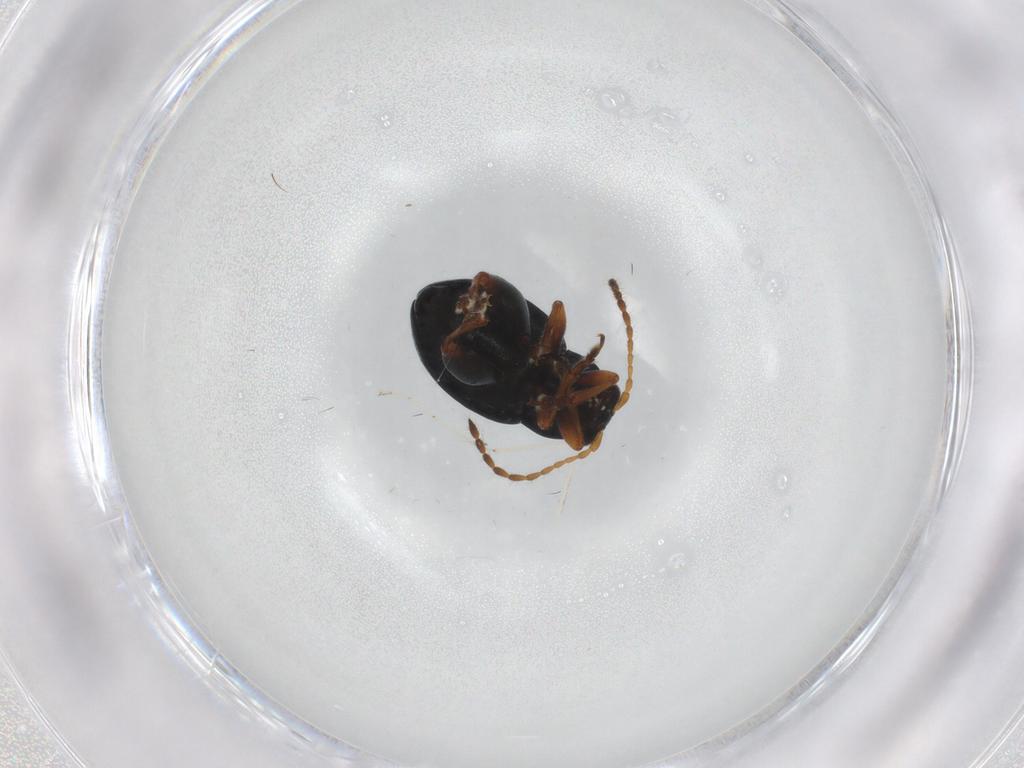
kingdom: Animalia
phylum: Arthropoda
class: Insecta
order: Coleoptera
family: Chrysomelidae
